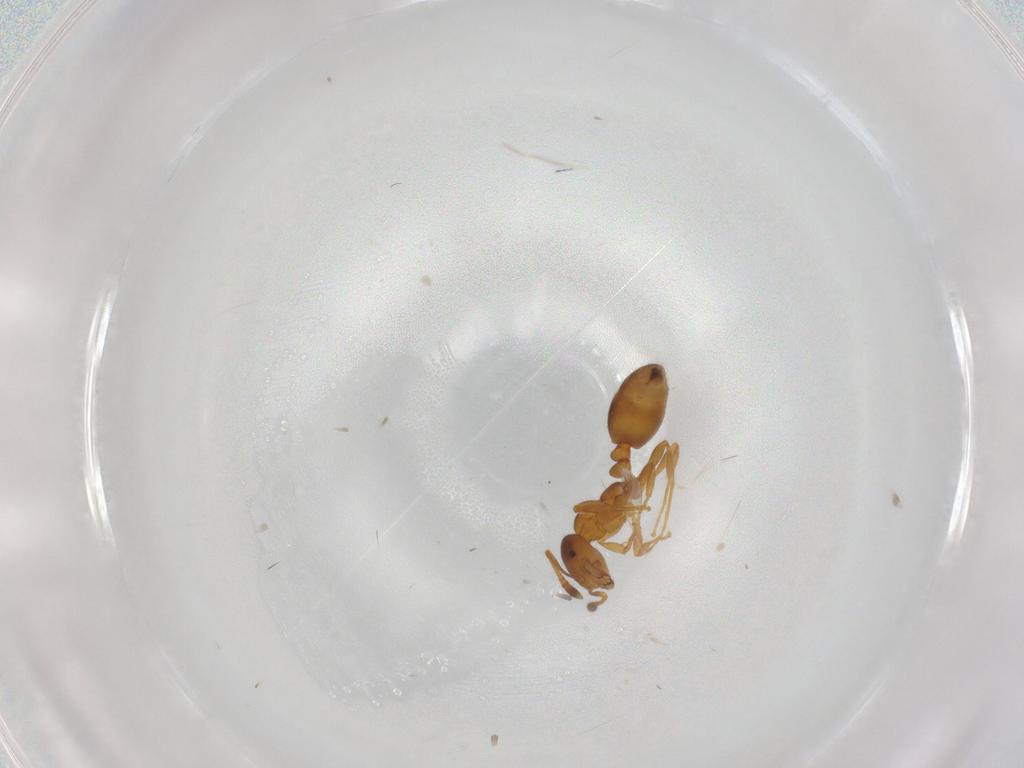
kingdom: Animalia
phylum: Arthropoda
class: Insecta
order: Hymenoptera
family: Formicidae
